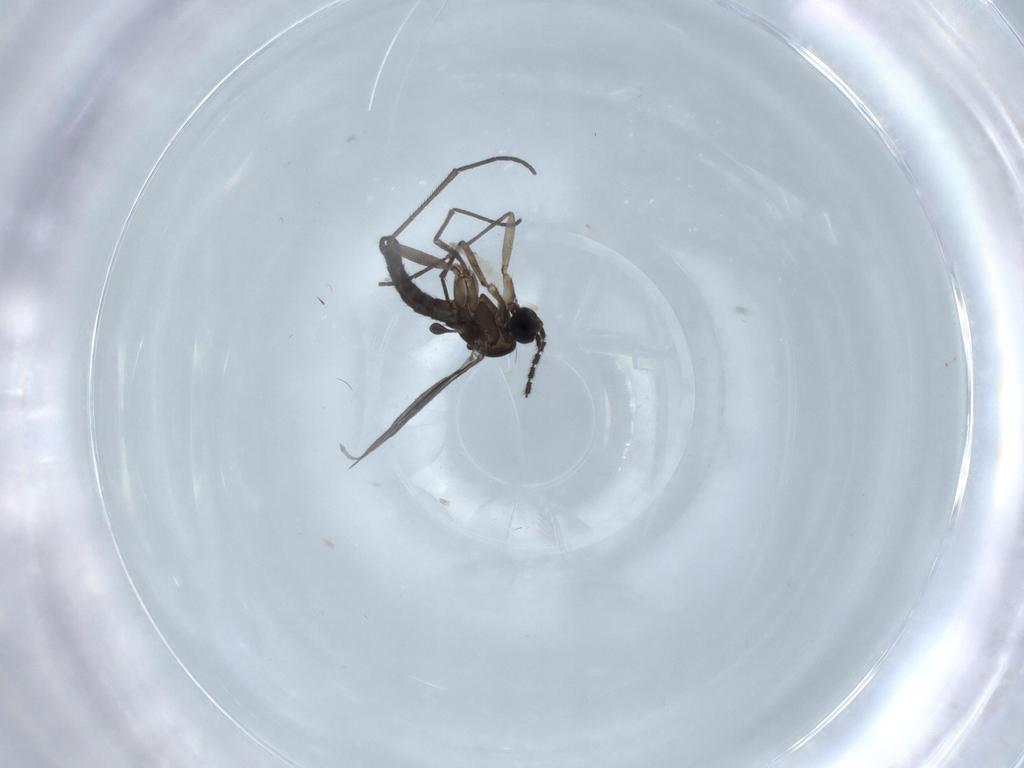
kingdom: Animalia
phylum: Arthropoda
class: Insecta
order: Diptera
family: Sciaridae
